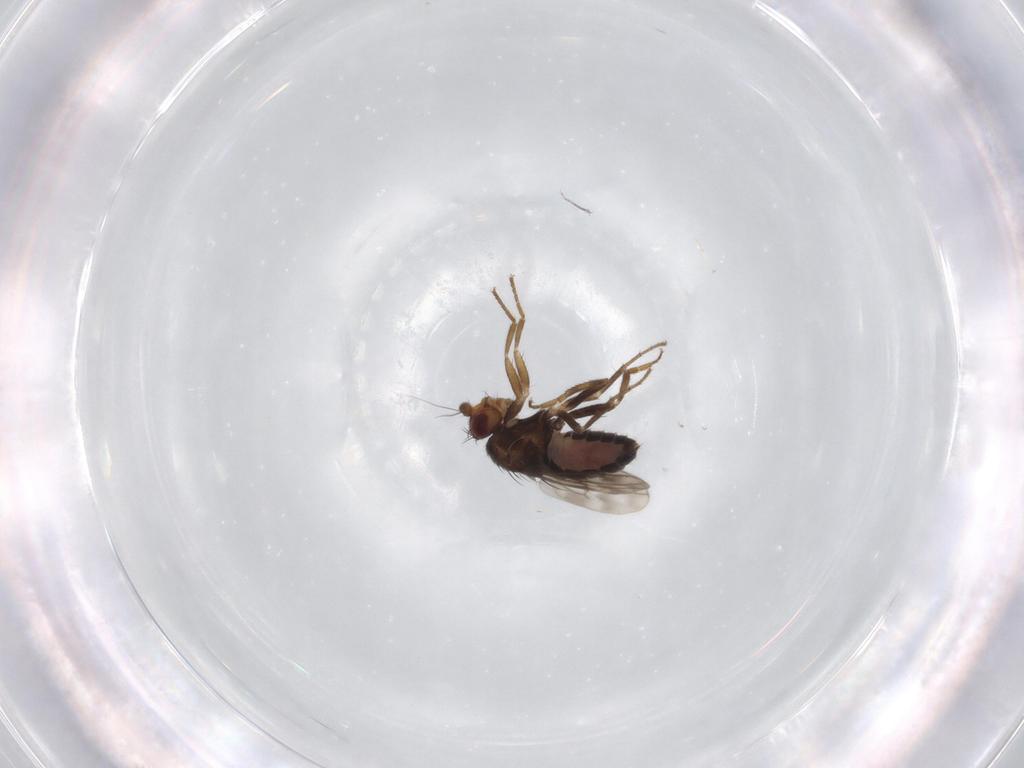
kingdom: Animalia
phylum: Arthropoda
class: Insecta
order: Diptera
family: Sphaeroceridae
